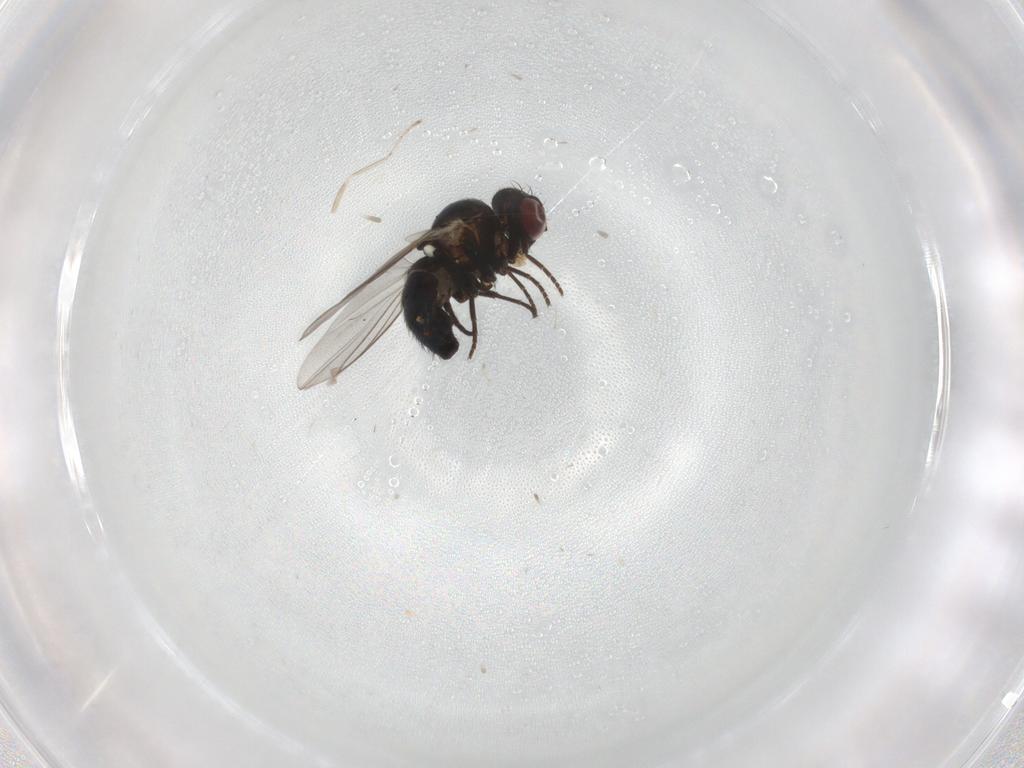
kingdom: Animalia
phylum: Arthropoda
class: Insecta
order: Diptera
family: Agromyzidae
